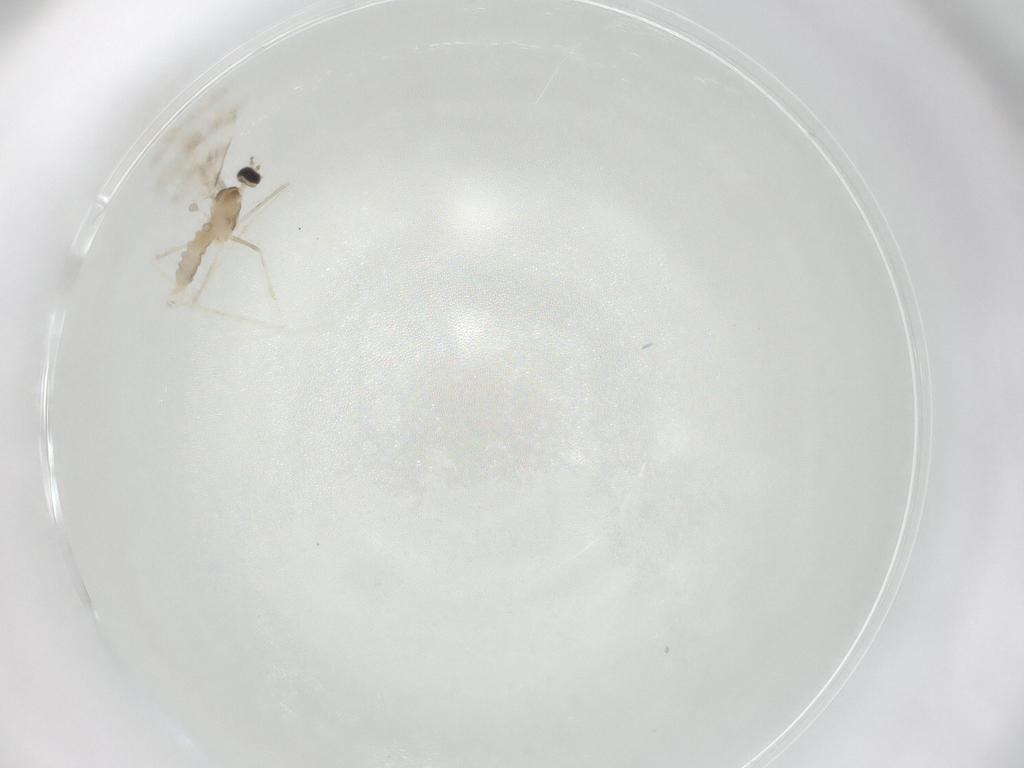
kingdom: Animalia
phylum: Arthropoda
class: Insecta
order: Diptera
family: Cecidomyiidae
